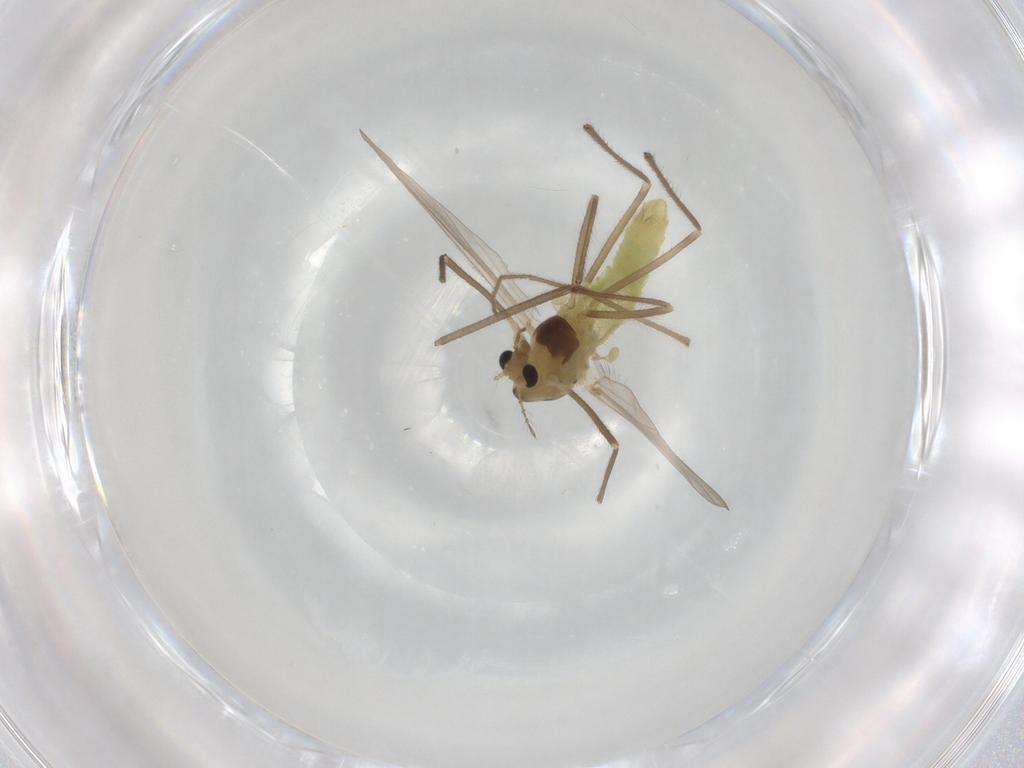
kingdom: Animalia
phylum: Arthropoda
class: Insecta
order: Diptera
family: Chironomidae
